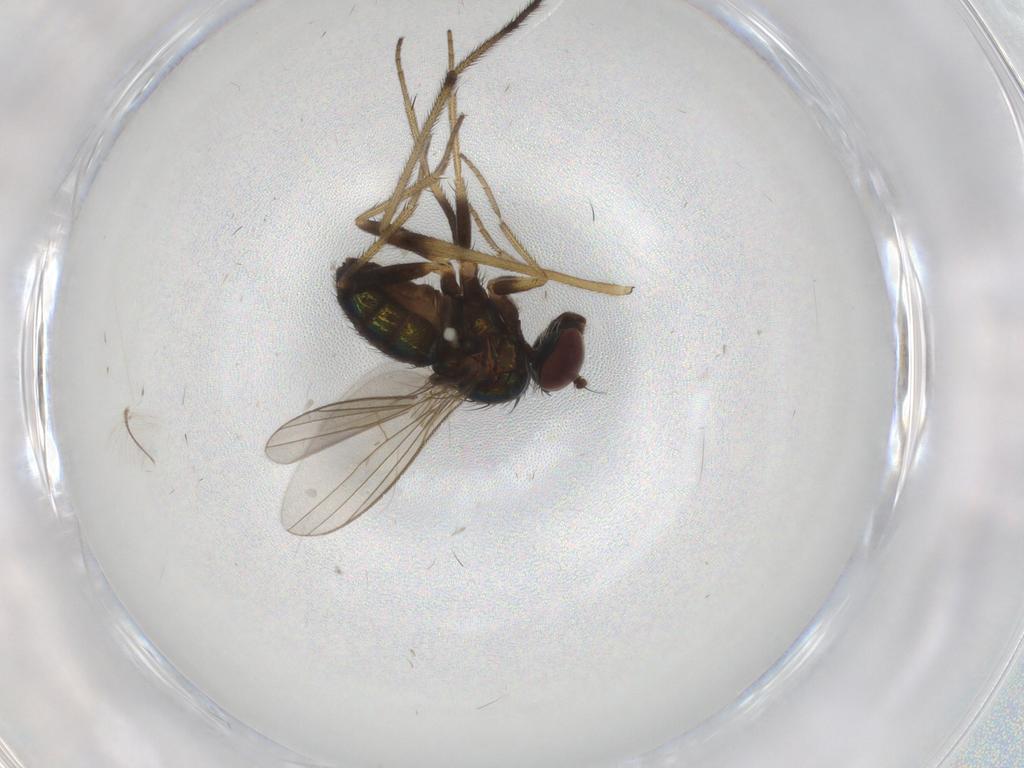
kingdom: Animalia
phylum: Arthropoda
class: Insecta
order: Diptera
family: Limoniidae
